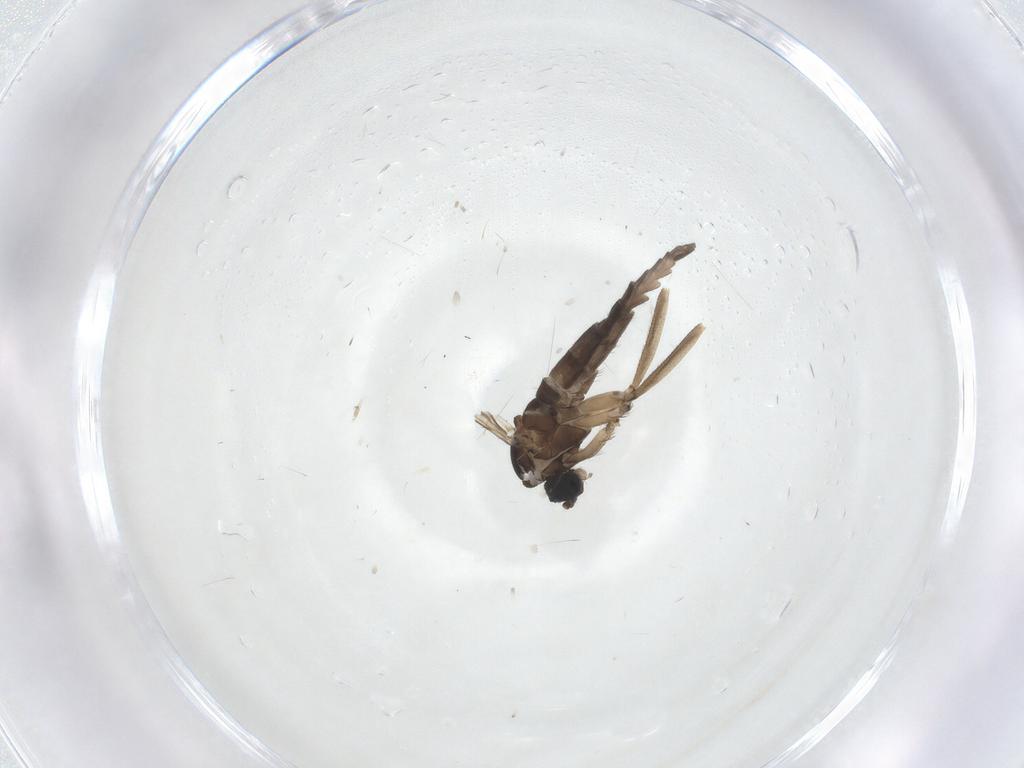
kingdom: Animalia
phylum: Arthropoda
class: Insecta
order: Diptera
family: Sciaridae
